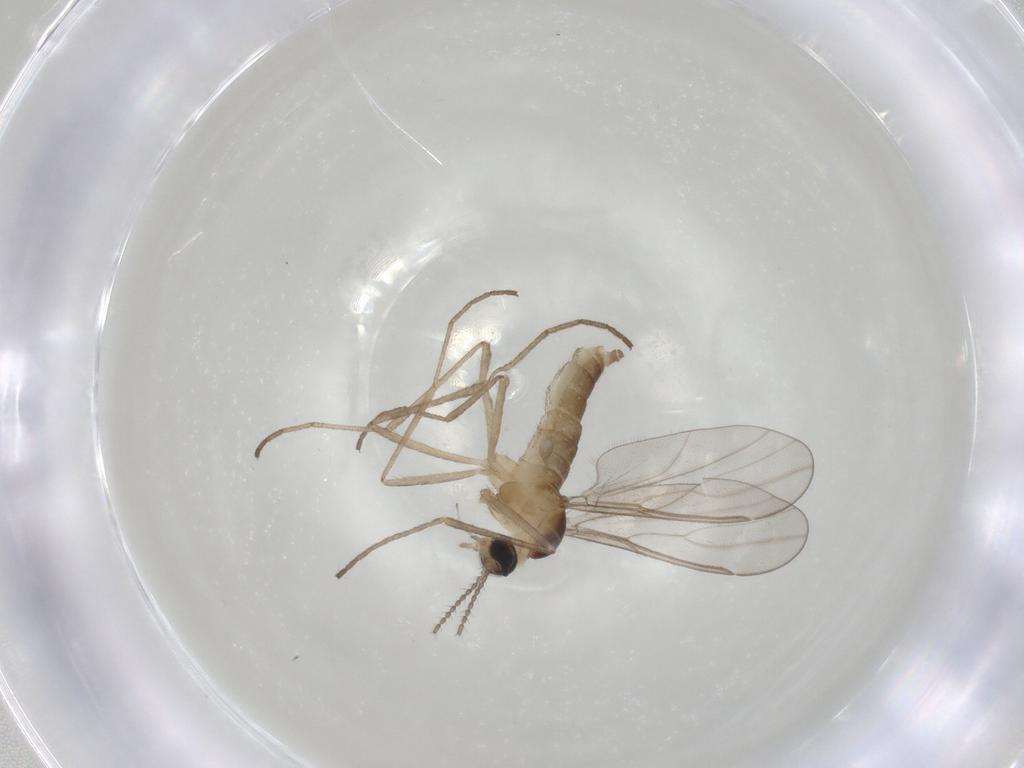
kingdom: Animalia
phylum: Arthropoda
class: Insecta
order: Diptera
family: Cecidomyiidae
